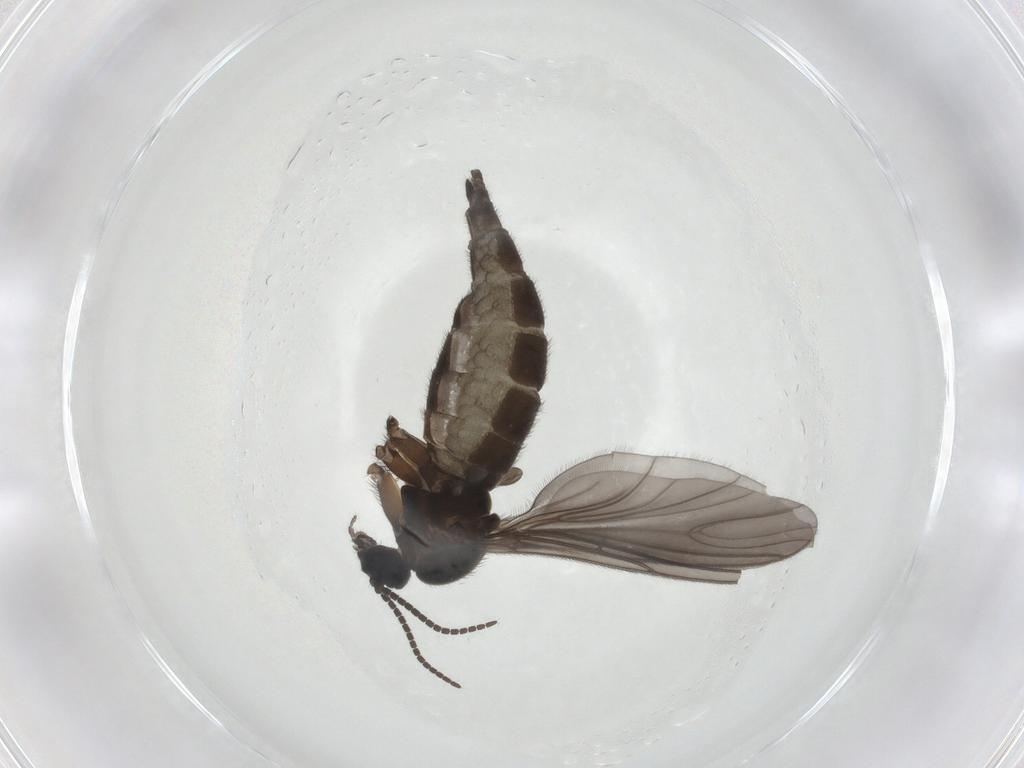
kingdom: Animalia
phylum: Arthropoda
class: Insecta
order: Diptera
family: Sciaridae
